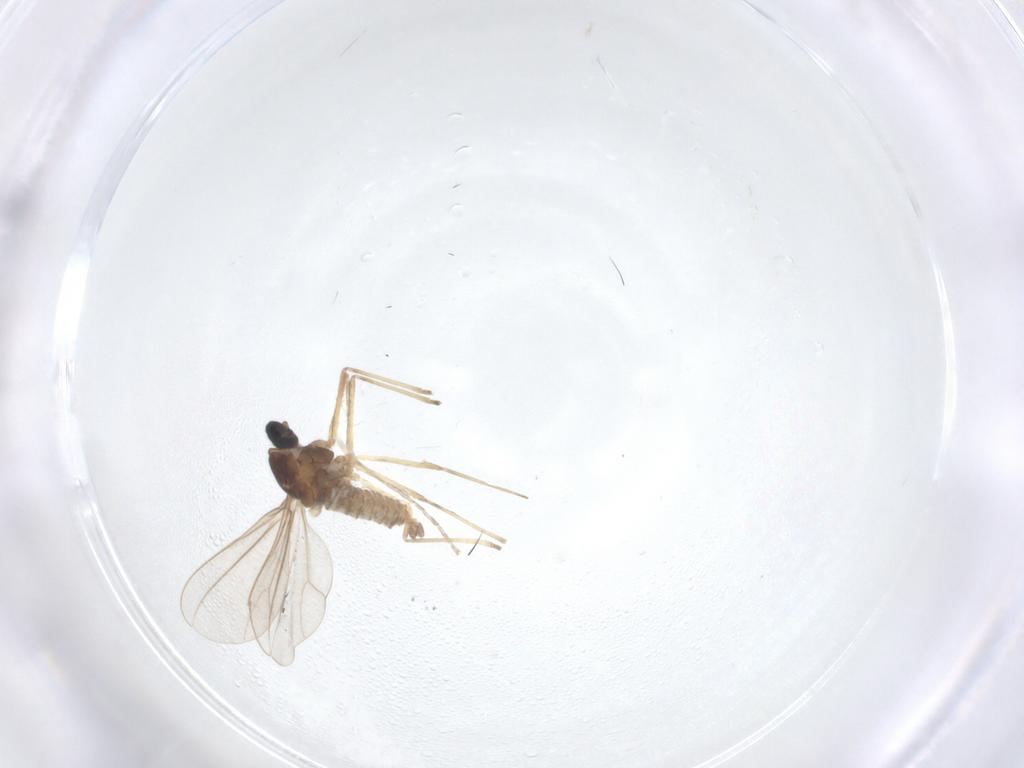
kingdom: Animalia
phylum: Arthropoda
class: Insecta
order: Diptera
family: Cecidomyiidae
